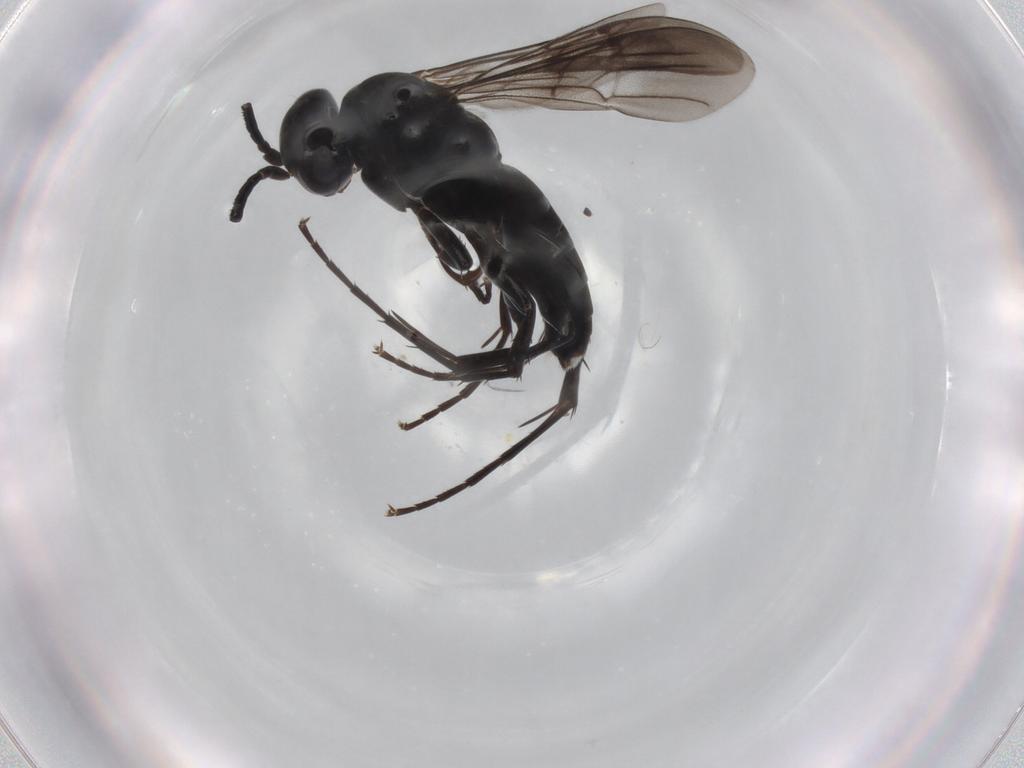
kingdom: Animalia
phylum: Arthropoda
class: Insecta
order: Hymenoptera
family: Pompilidae
